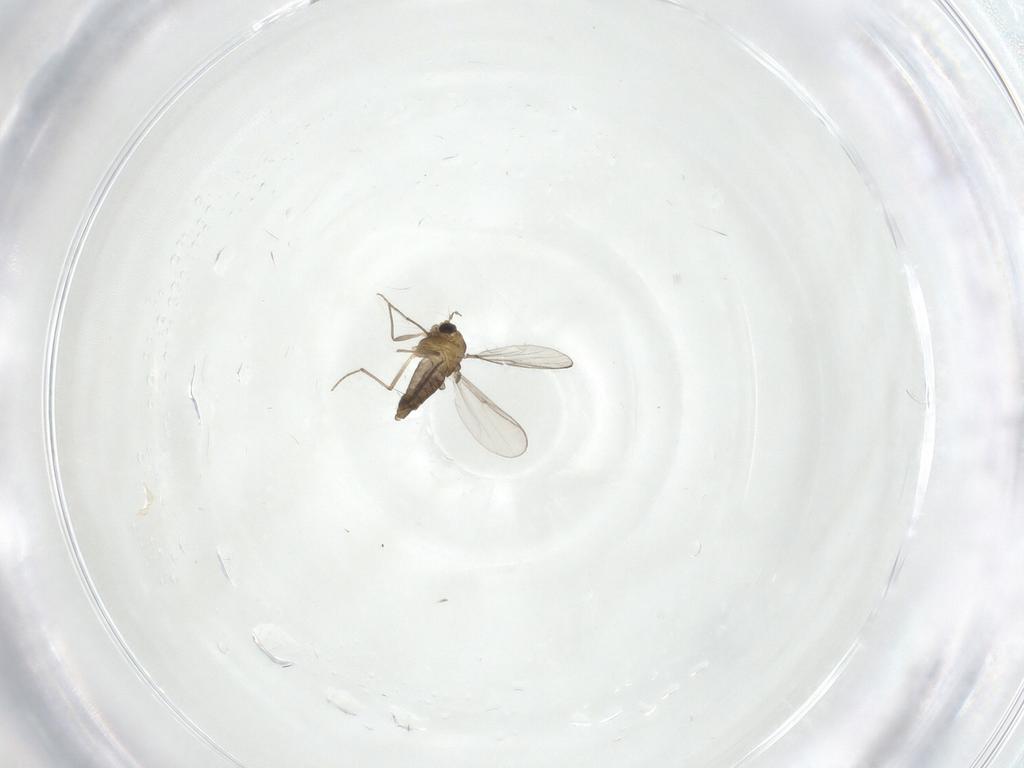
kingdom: Animalia
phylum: Arthropoda
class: Insecta
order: Diptera
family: Chironomidae
